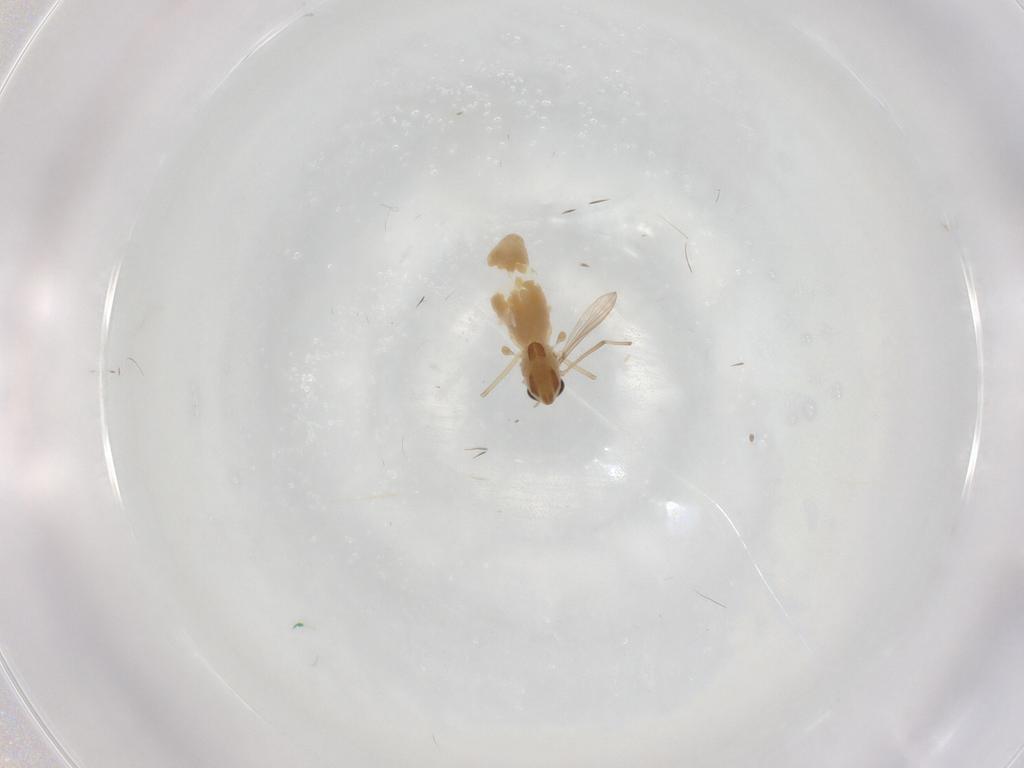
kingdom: Animalia
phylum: Arthropoda
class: Insecta
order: Diptera
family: Chironomidae
